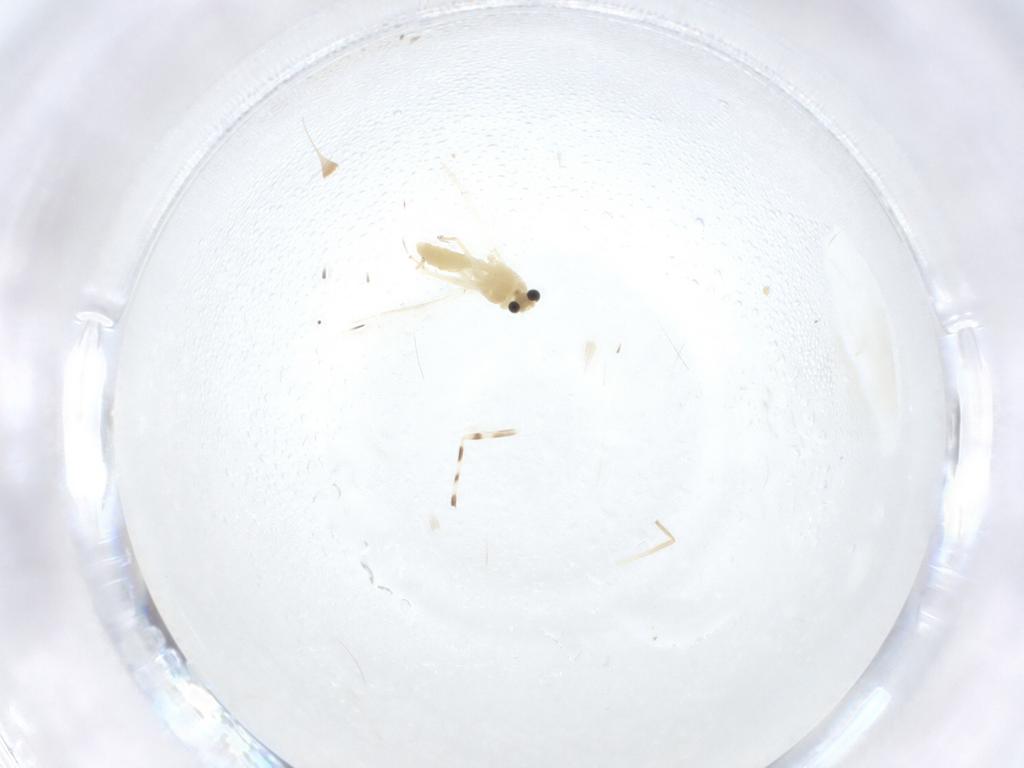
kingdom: Animalia
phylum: Arthropoda
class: Insecta
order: Diptera
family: Chironomidae
